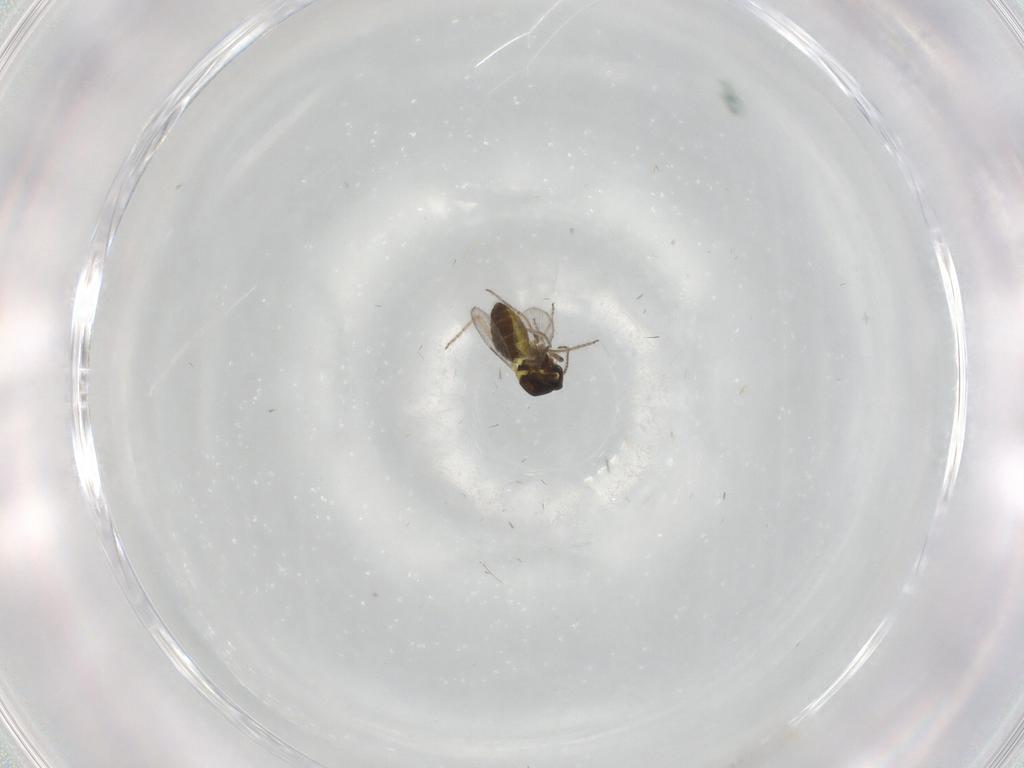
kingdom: Animalia
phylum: Arthropoda
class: Insecta
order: Diptera
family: Ceratopogonidae
